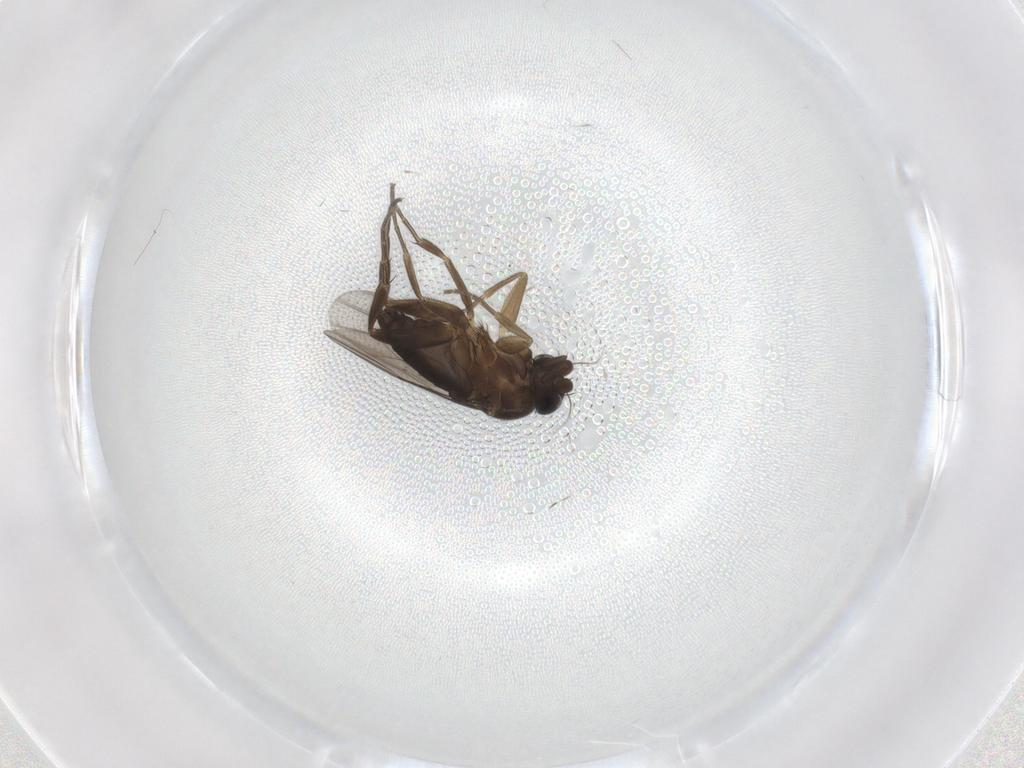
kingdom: Animalia
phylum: Arthropoda
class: Insecta
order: Diptera
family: Phoridae
